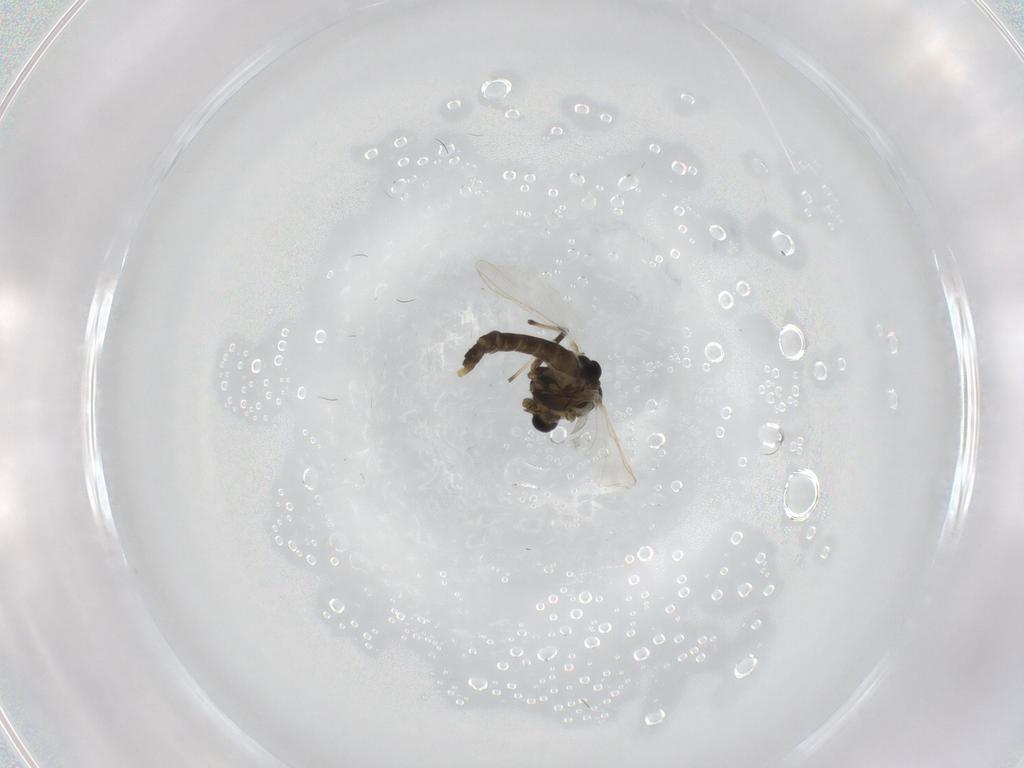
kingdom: Animalia
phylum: Arthropoda
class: Insecta
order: Diptera
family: Chironomidae
